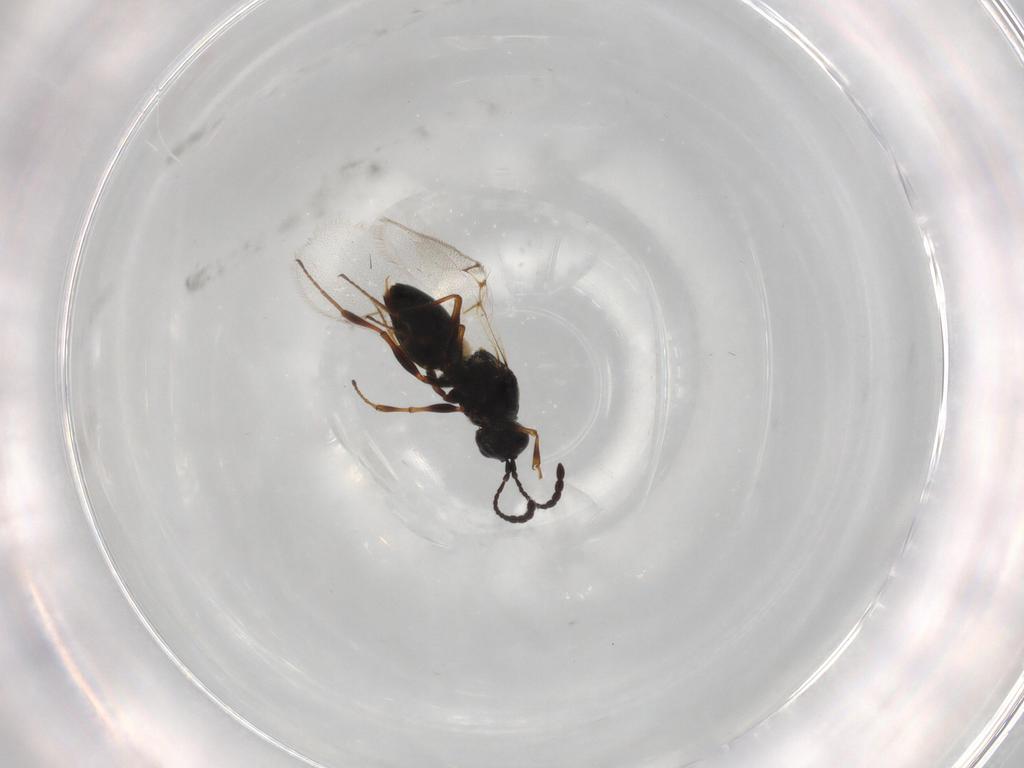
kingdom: Animalia
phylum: Arthropoda
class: Insecta
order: Hymenoptera
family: Figitidae
